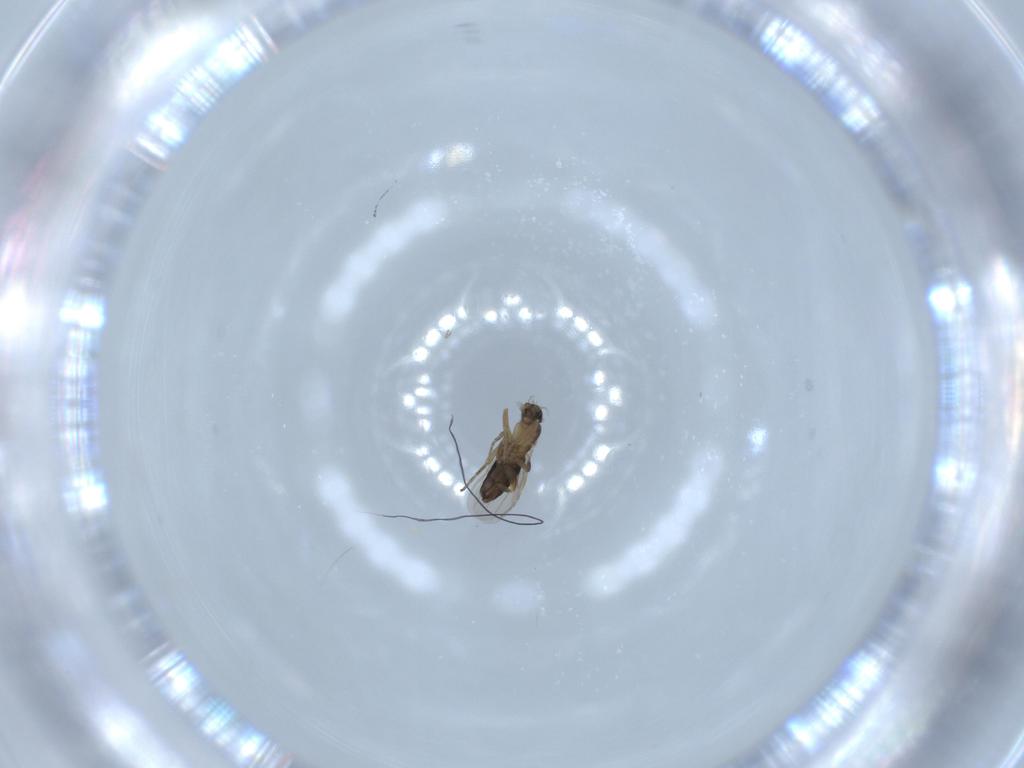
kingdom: Animalia
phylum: Arthropoda
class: Insecta
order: Diptera
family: Phoridae
